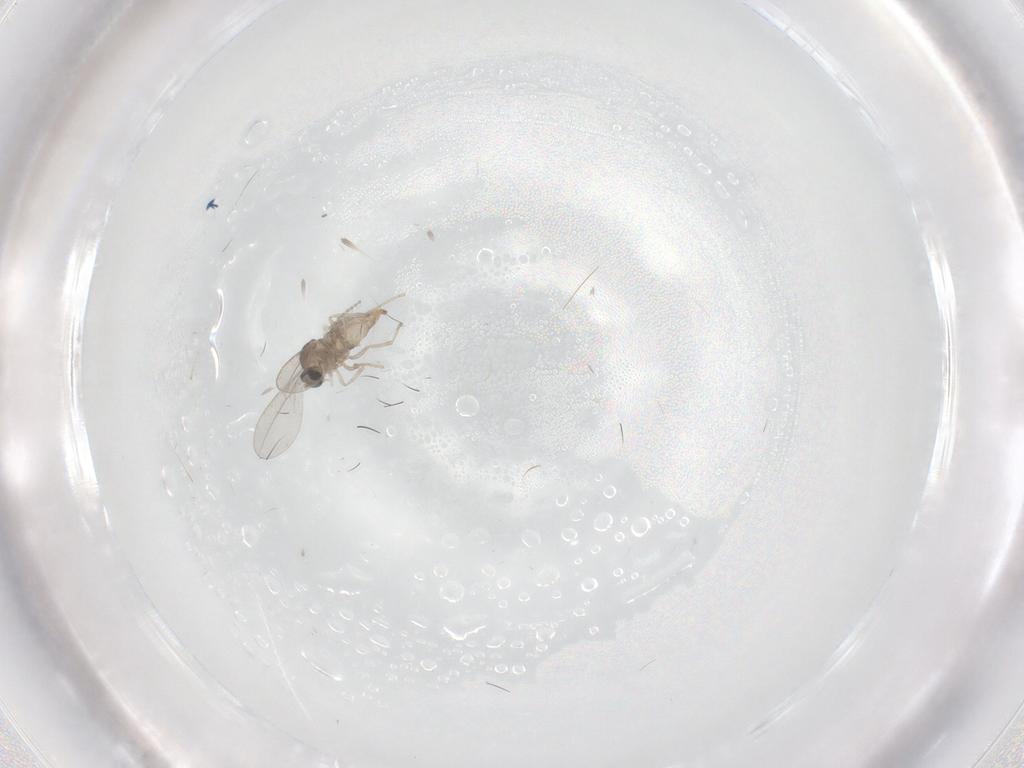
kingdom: Animalia
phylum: Arthropoda
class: Insecta
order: Diptera
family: Cecidomyiidae
